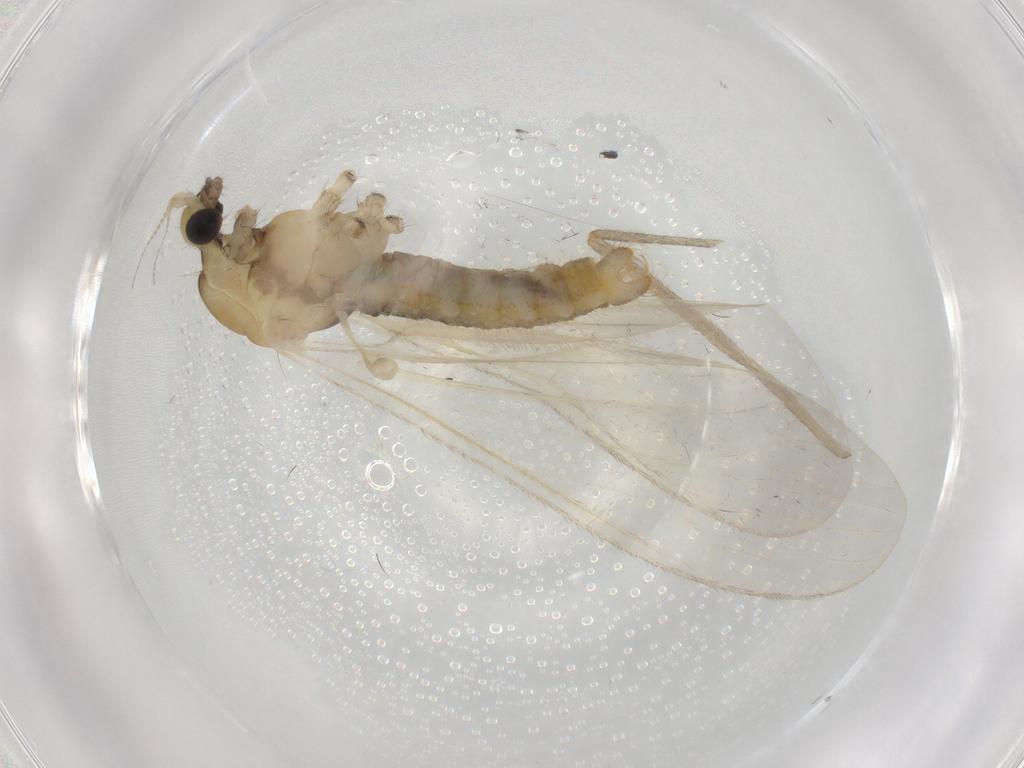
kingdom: Animalia
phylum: Arthropoda
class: Insecta
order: Diptera
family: Limoniidae
